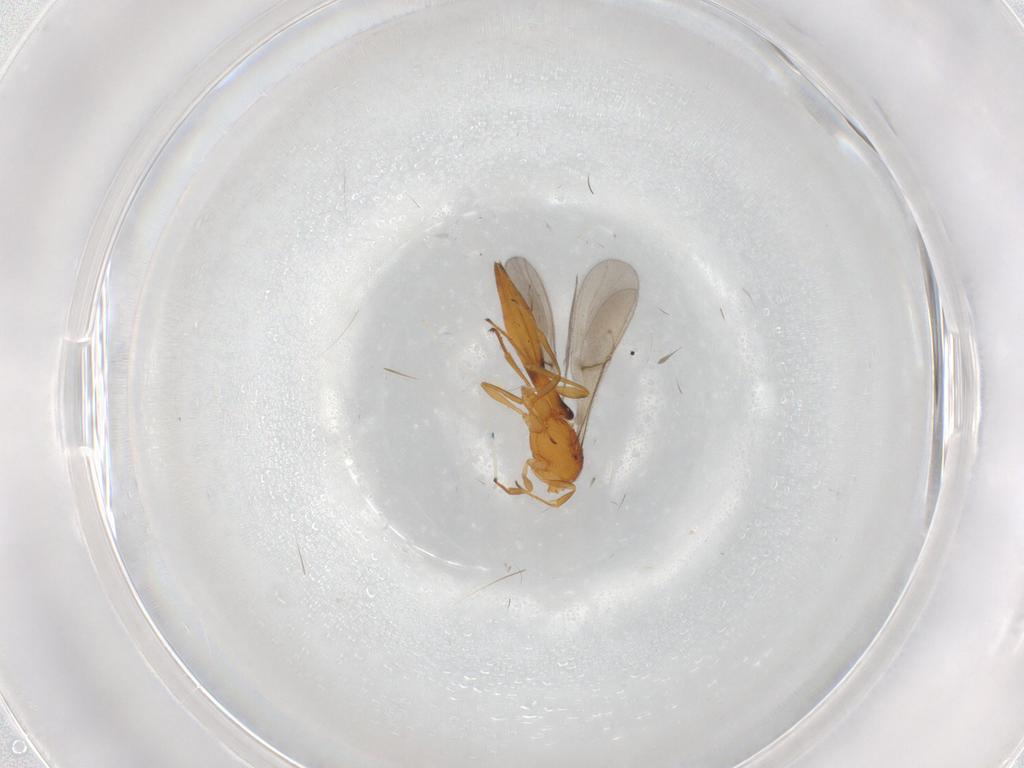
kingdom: Animalia
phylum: Arthropoda
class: Insecta
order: Hymenoptera
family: Scelionidae
